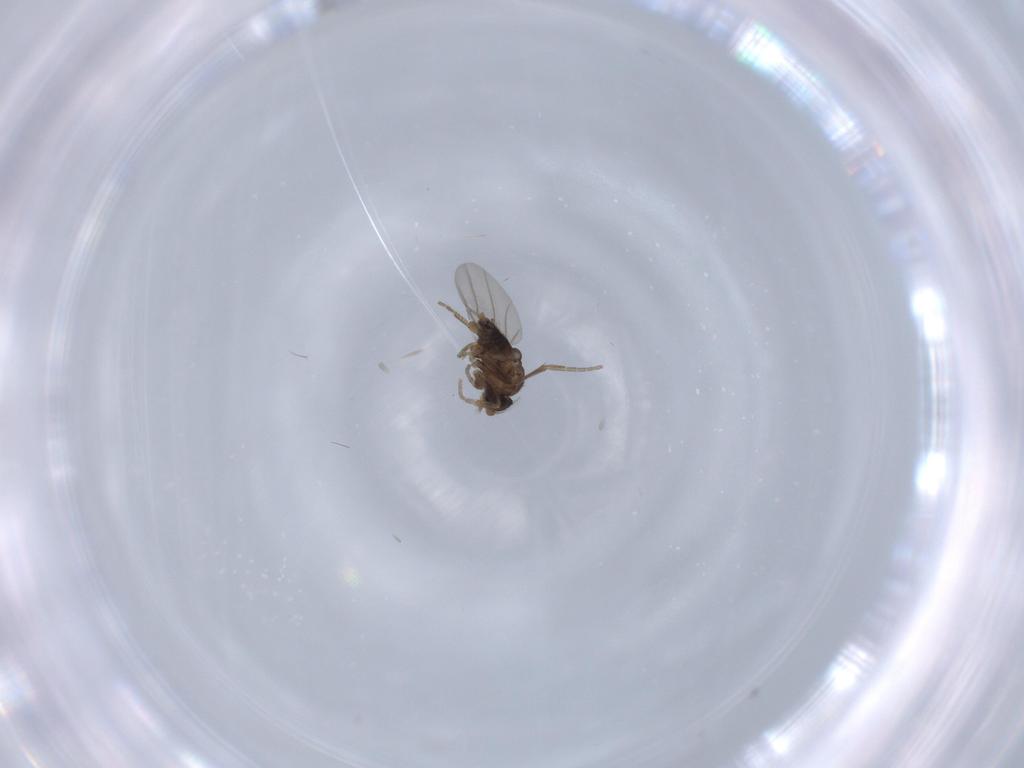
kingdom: Animalia
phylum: Arthropoda
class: Insecta
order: Diptera
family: Phoridae
